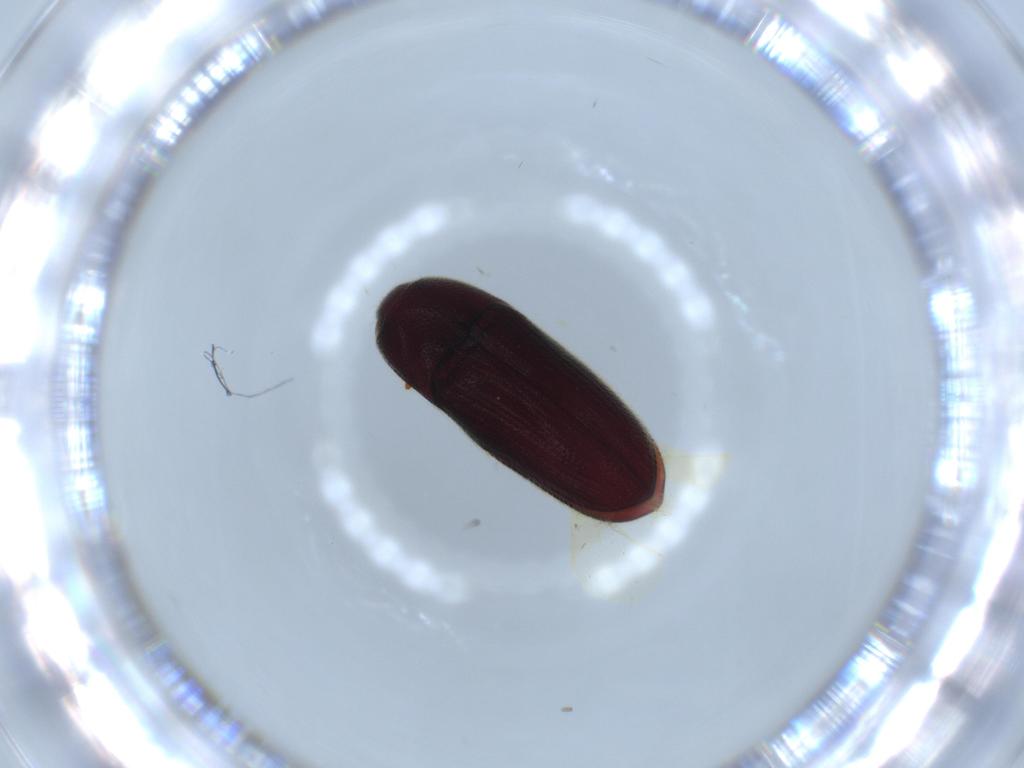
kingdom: Animalia
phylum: Arthropoda
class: Insecta
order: Coleoptera
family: Throscidae
